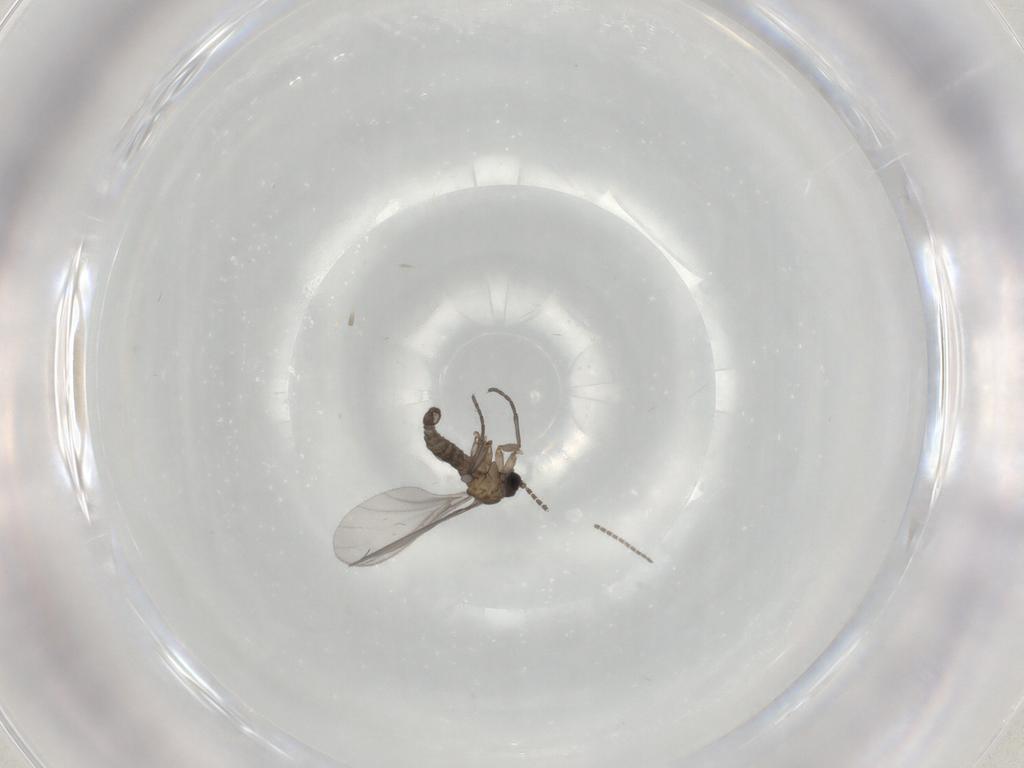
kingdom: Animalia
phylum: Arthropoda
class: Insecta
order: Diptera
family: Sciaridae
